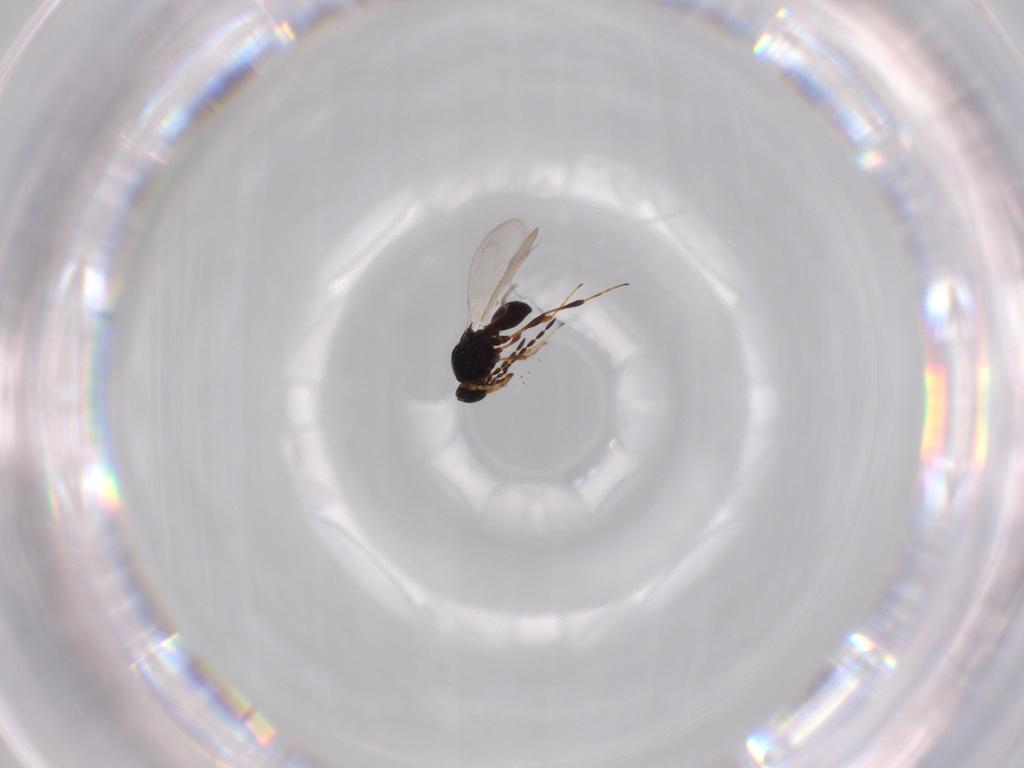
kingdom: Animalia
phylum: Arthropoda
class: Insecta
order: Hymenoptera
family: Platygastridae
